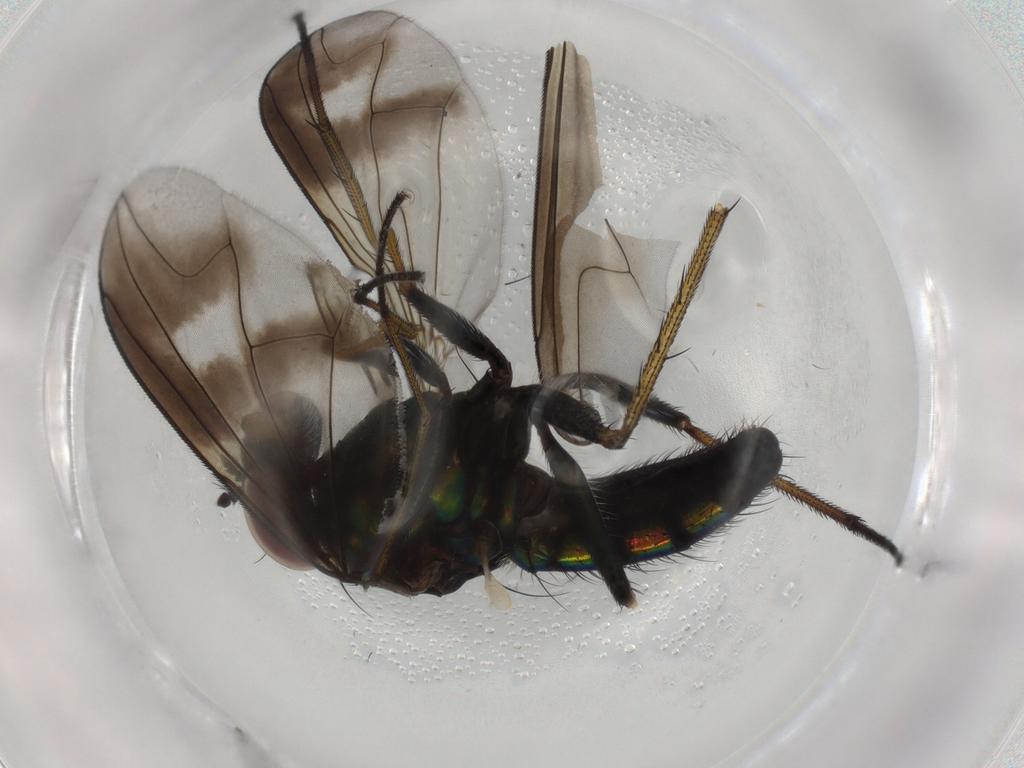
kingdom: Animalia
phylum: Arthropoda
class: Insecta
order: Diptera
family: Dolichopodidae
